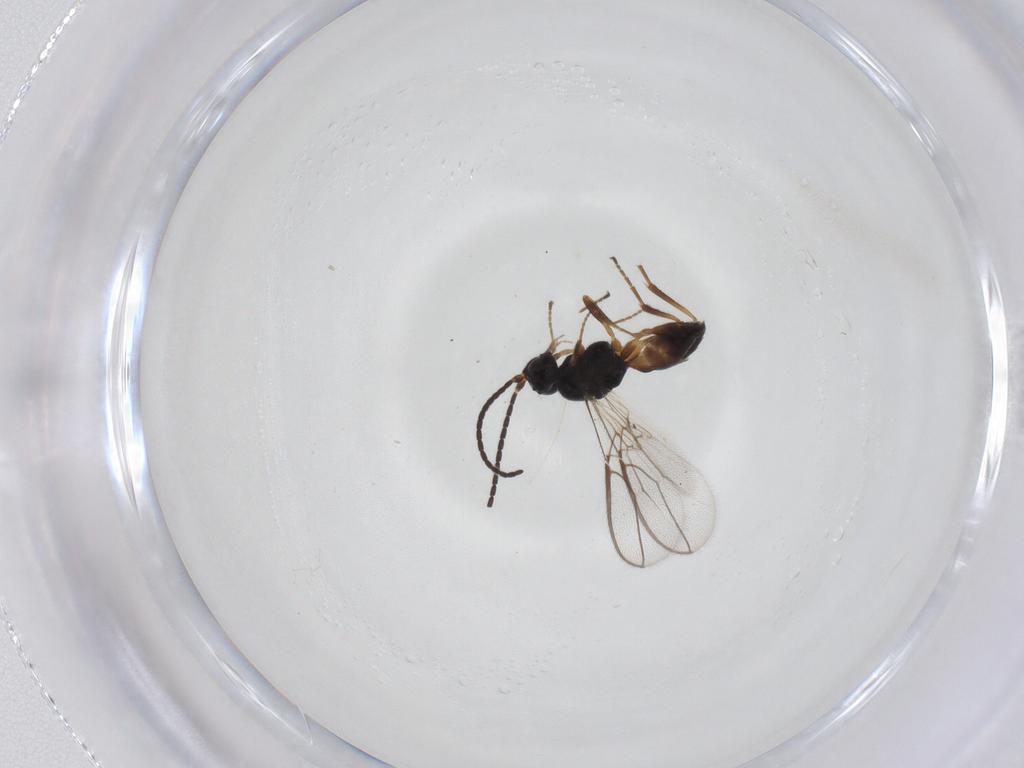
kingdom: Animalia
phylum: Arthropoda
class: Insecta
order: Hymenoptera
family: Braconidae
